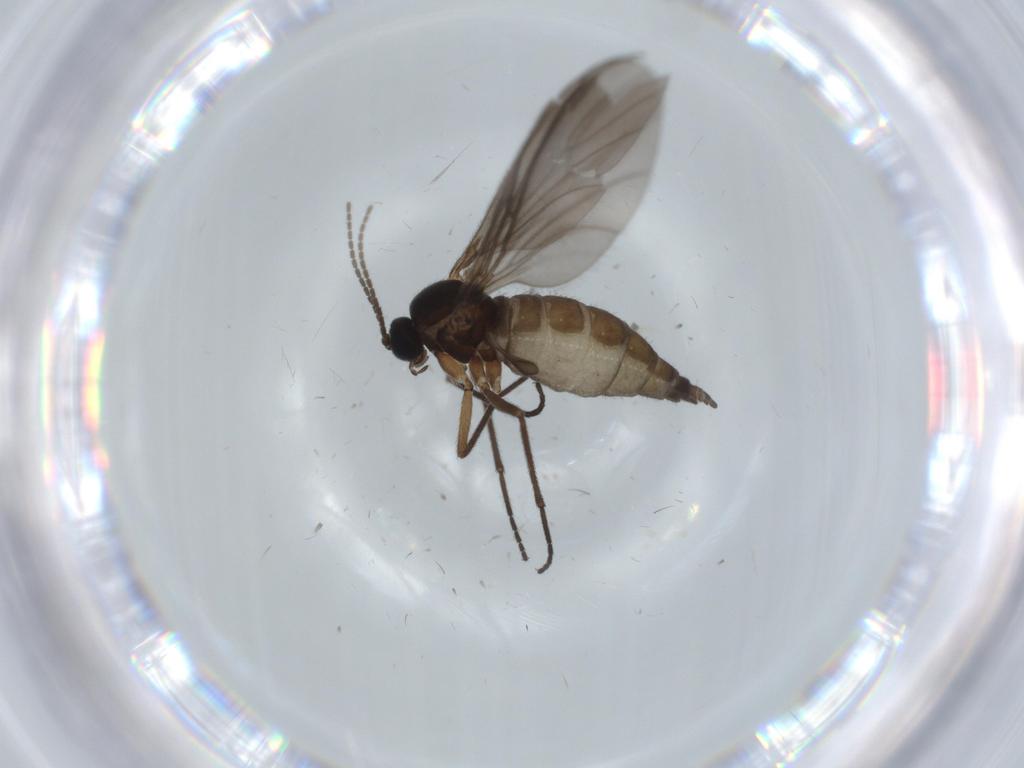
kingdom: Animalia
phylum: Arthropoda
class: Insecta
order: Diptera
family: Sciaridae
